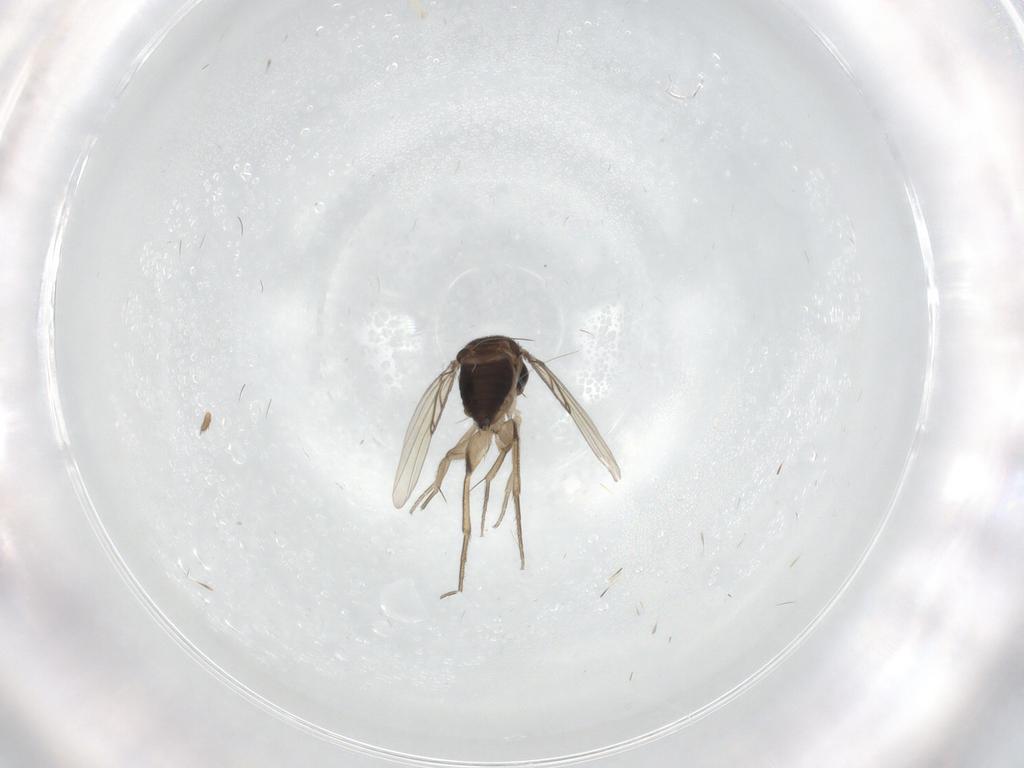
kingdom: Animalia
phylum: Arthropoda
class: Insecta
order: Diptera
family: Phoridae
